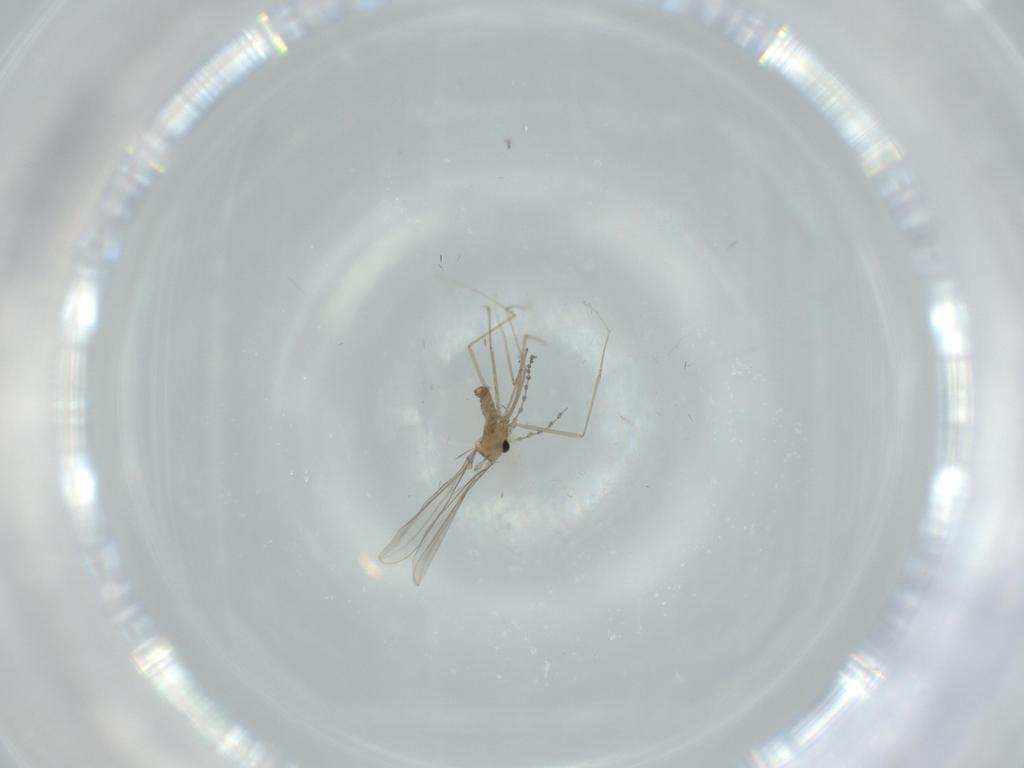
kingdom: Animalia
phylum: Arthropoda
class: Insecta
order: Diptera
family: Cecidomyiidae
